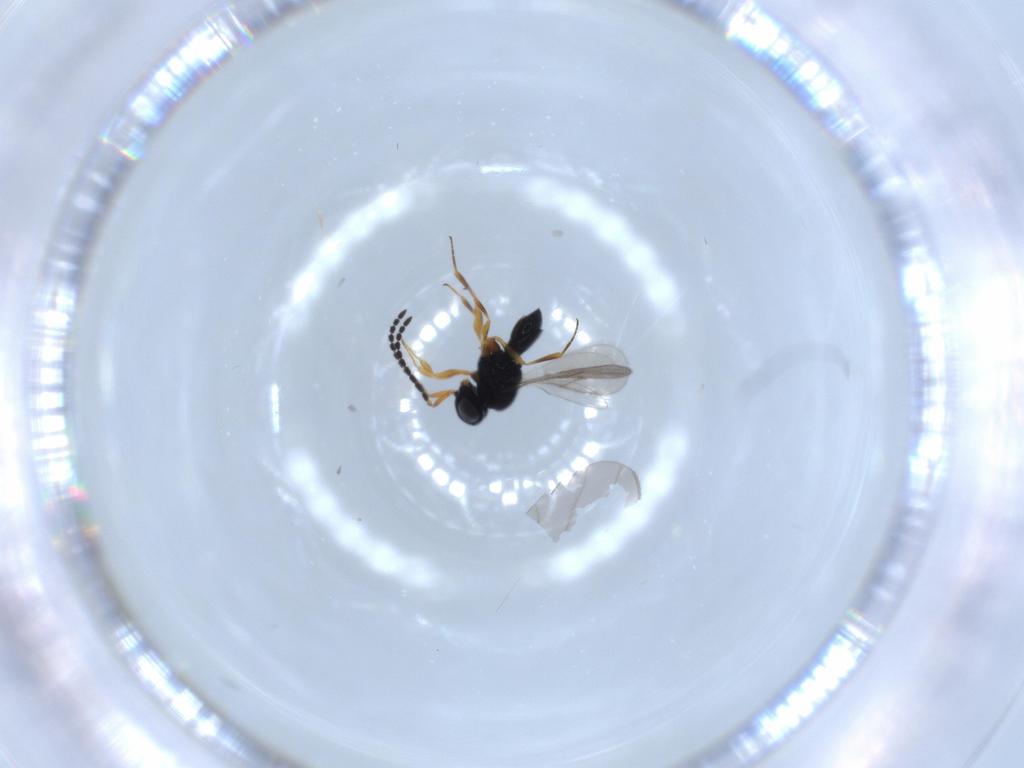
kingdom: Animalia
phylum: Arthropoda
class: Insecta
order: Hymenoptera
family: Scelionidae
